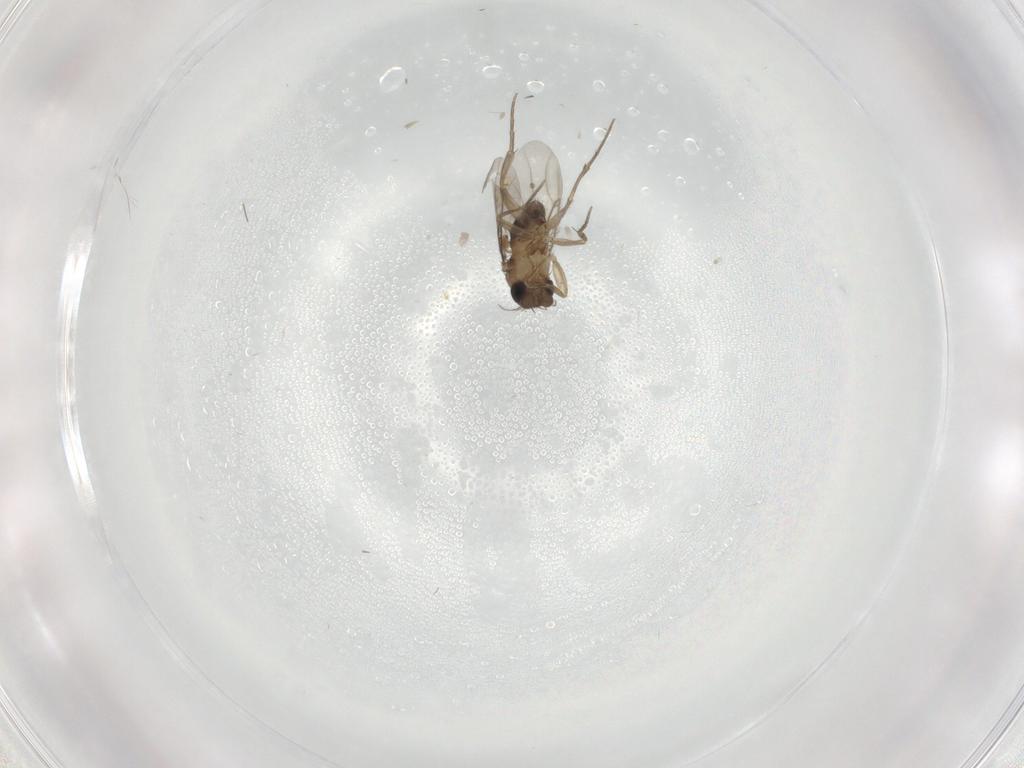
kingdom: Animalia
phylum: Arthropoda
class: Insecta
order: Diptera
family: Phoridae
